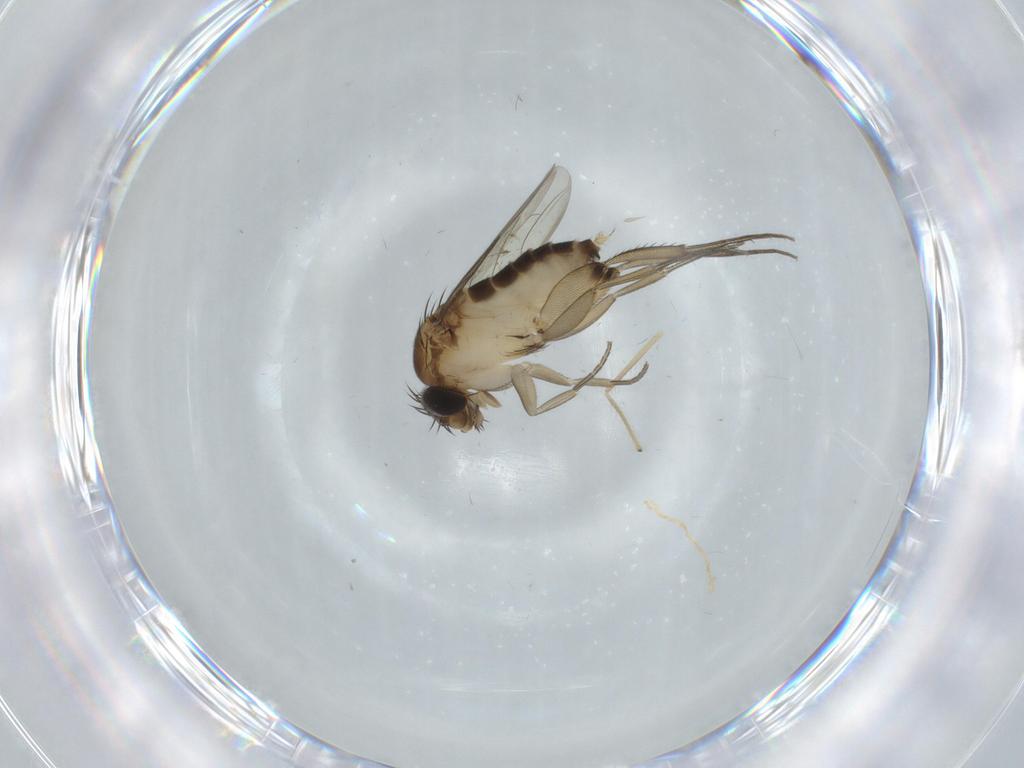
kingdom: Animalia
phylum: Arthropoda
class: Insecta
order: Diptera
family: Phoridae
